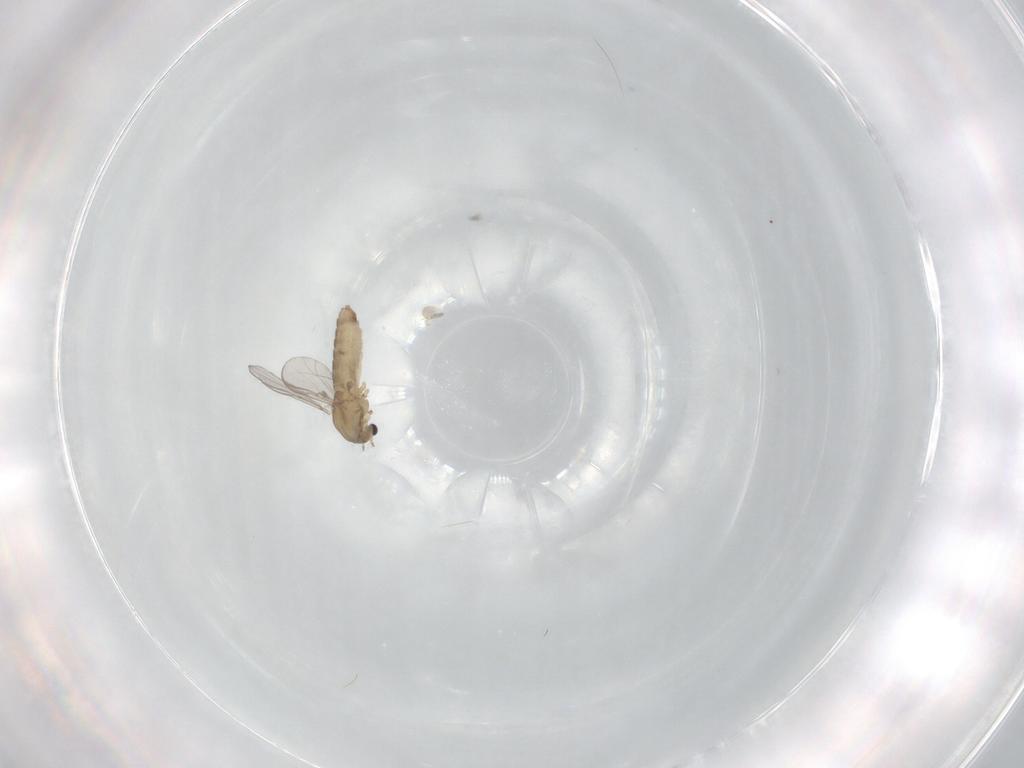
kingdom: Animalia
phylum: Arthropoda
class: Insecta
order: Diptera
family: Chironomidae
